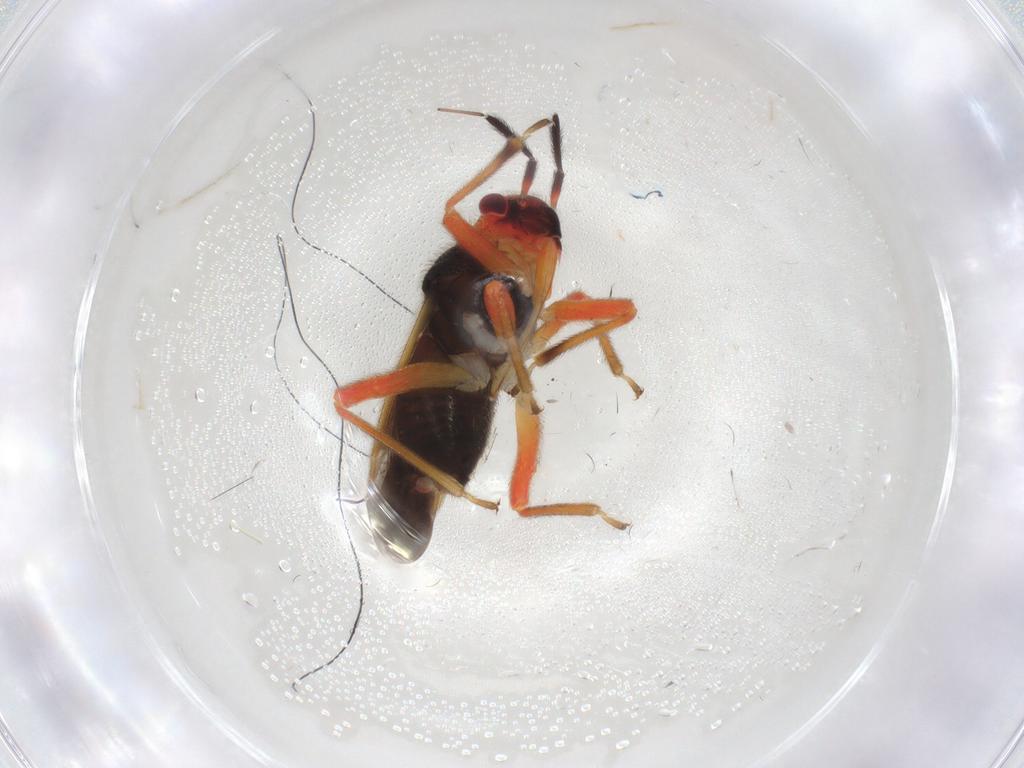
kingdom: Animalia
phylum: Arthropoda
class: Insecta
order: Hemiptera
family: Miridae
